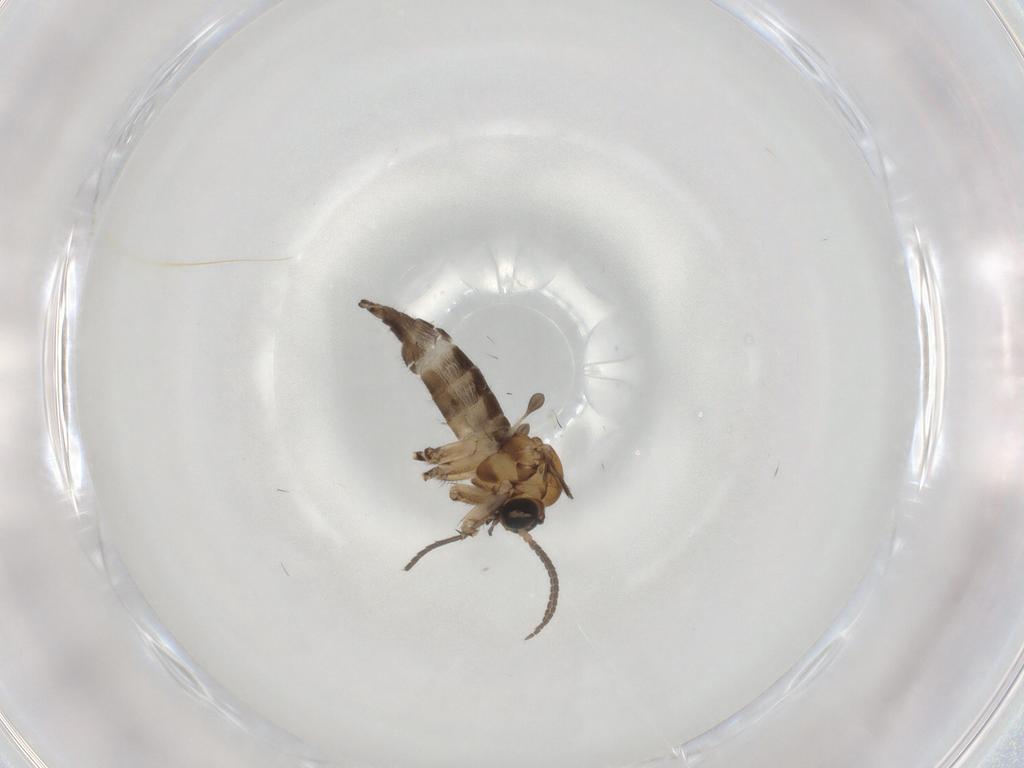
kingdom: Animalia
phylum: Arthropoda
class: Insecta
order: Diptera
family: Sciaridae
